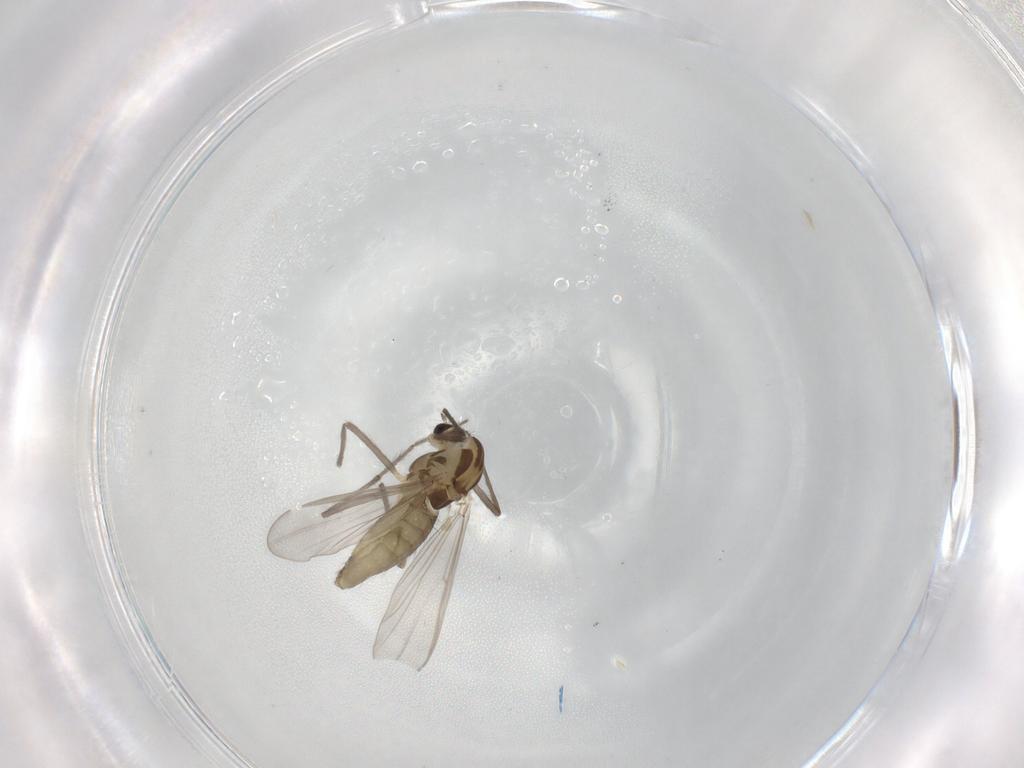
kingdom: Animalia
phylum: Arthropoda
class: Insecta
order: Diptera
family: Chironomidae
